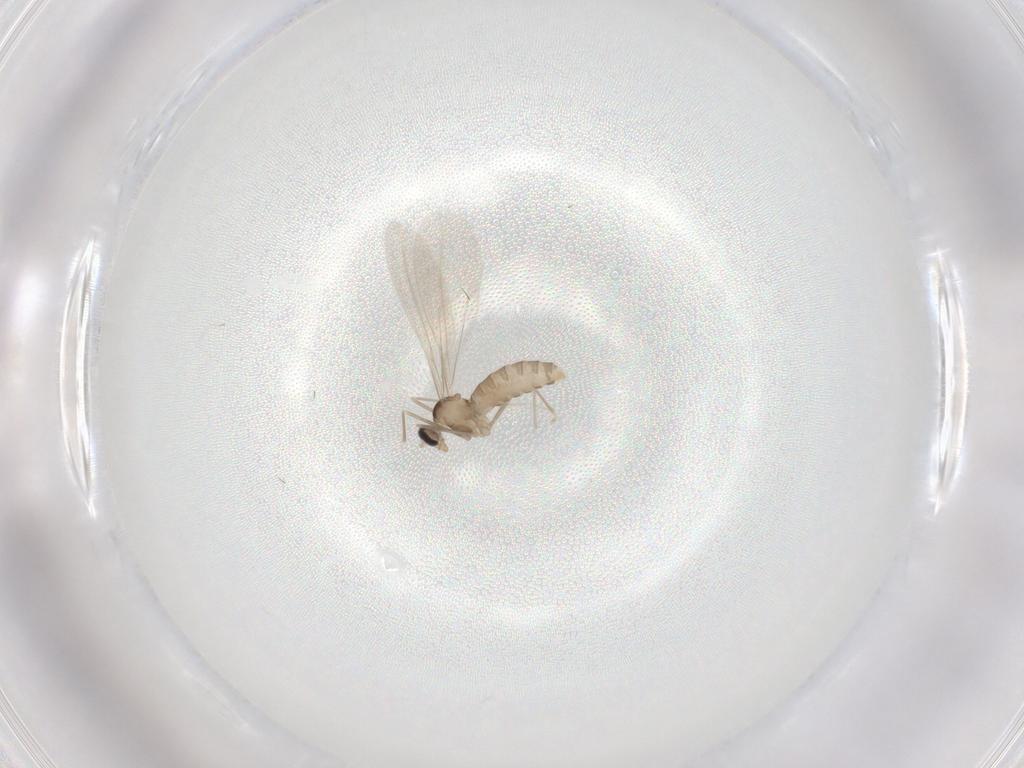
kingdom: Animalia
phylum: Arthropoda
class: Insecta
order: Diptera
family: Cecidomyiidae
